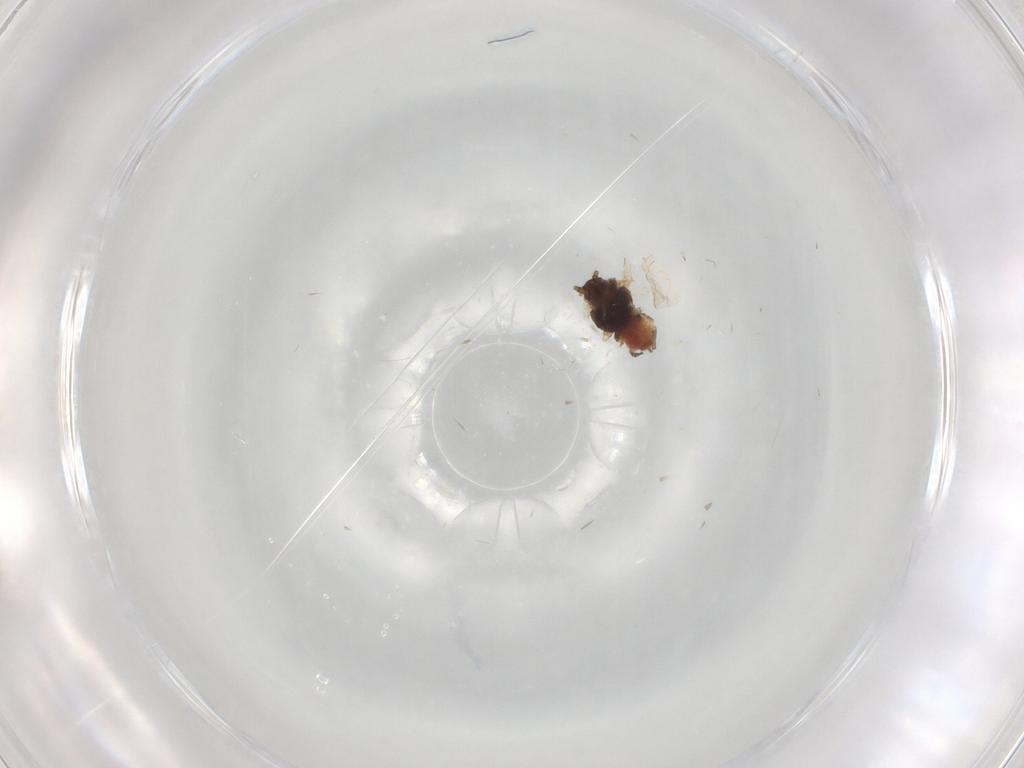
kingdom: Animalia
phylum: Arthropoda
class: Insecta
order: Hemiptera
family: Aphididae
